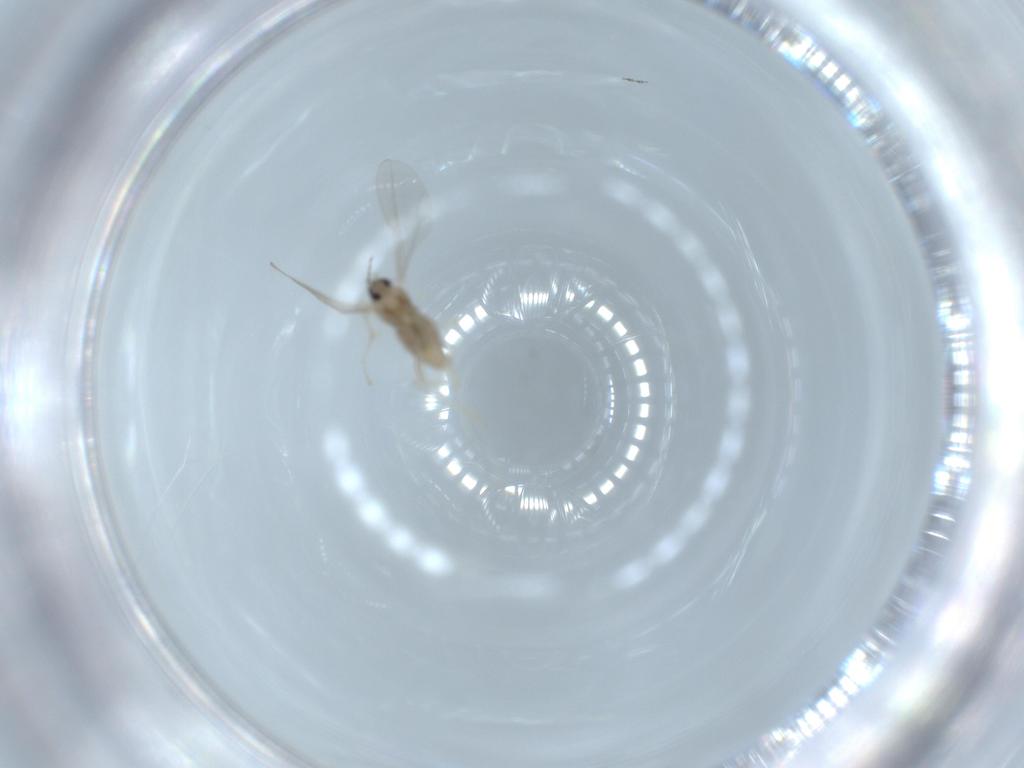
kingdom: Animalia
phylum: Arthropoda
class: Insecta
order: Diptera
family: Cecidomyiidae
